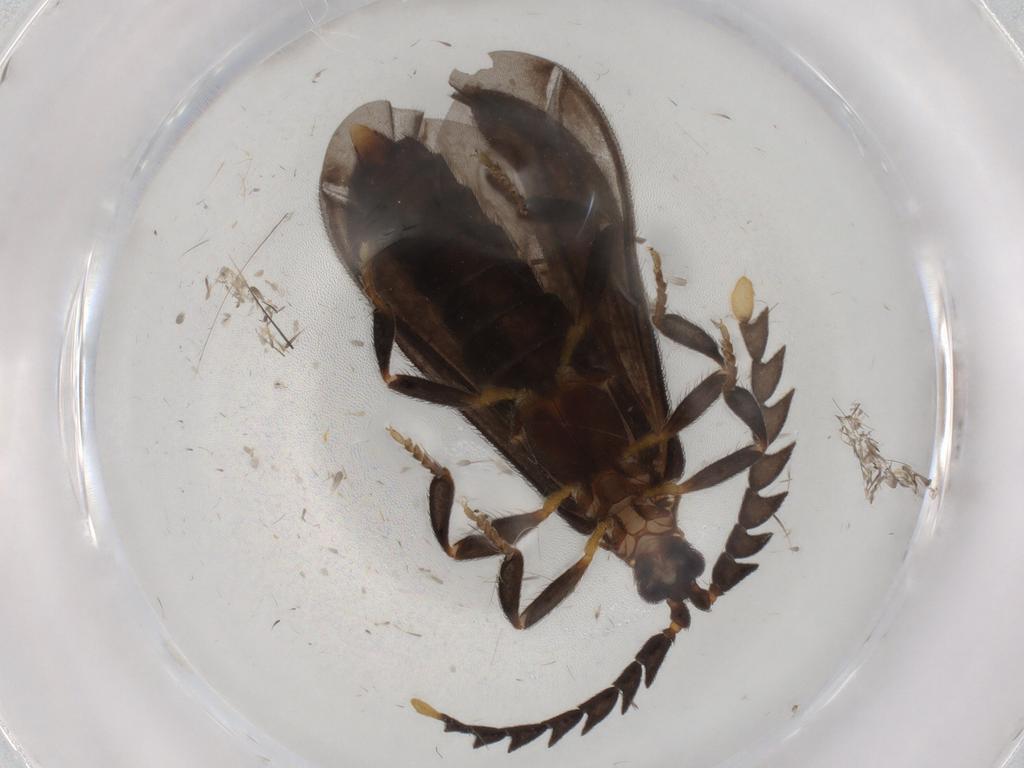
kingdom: Animalia
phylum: Arthropoda
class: Insecta
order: Coleoptera
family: Lycidae
